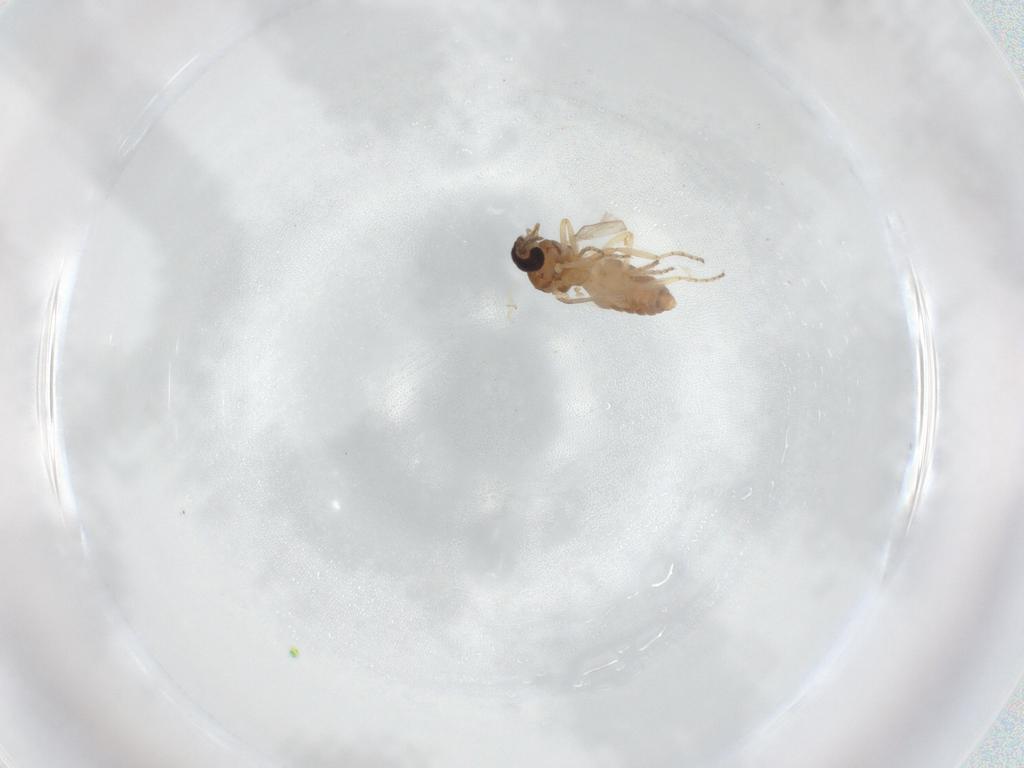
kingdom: Animalia
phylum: Arthropoda
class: Insecta
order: Diptera
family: Ceratopogonidae
